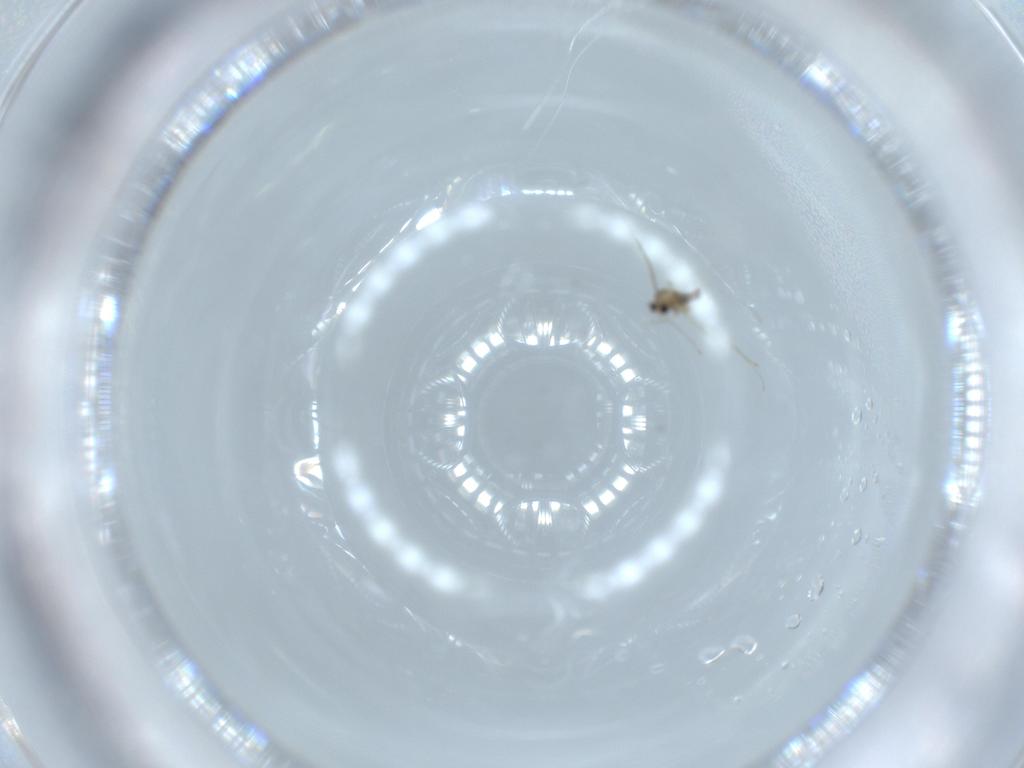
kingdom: Animalia
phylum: Arthropoda
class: Insecta
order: Diptera
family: Cecidomyiidae
